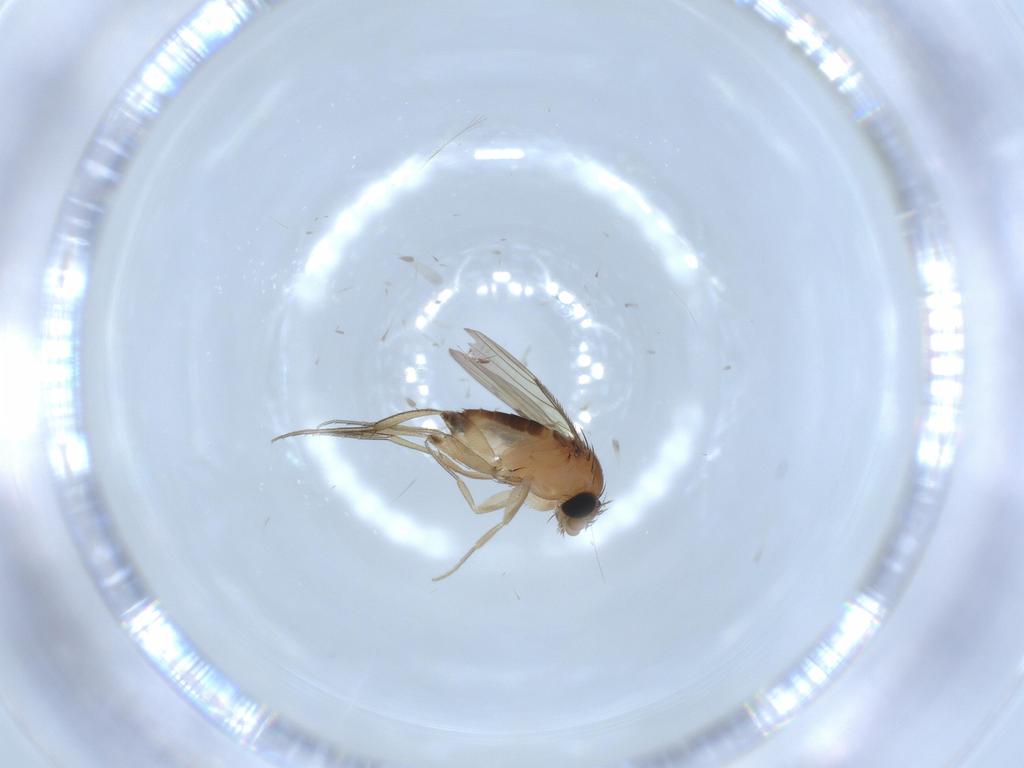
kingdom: Animalia
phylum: Arthropoda
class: Insecta
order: Diptera
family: Phoridae
